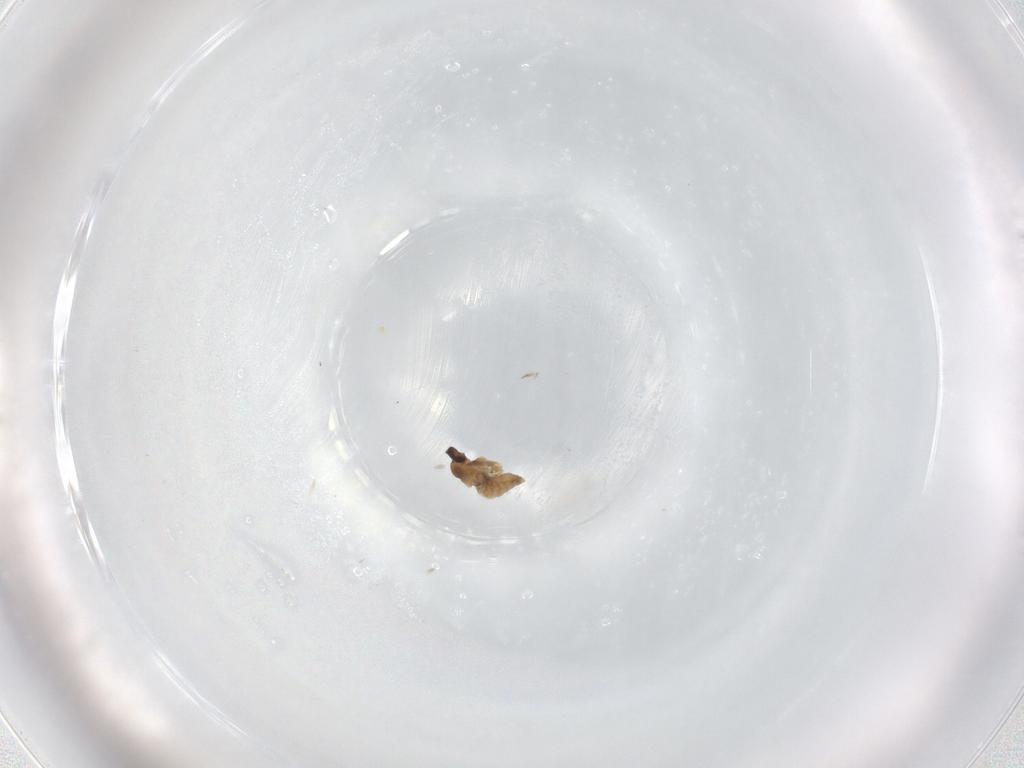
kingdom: Animalia
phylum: Arthropoda
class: Insecta
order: Diptera
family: Cecidomyiidae
